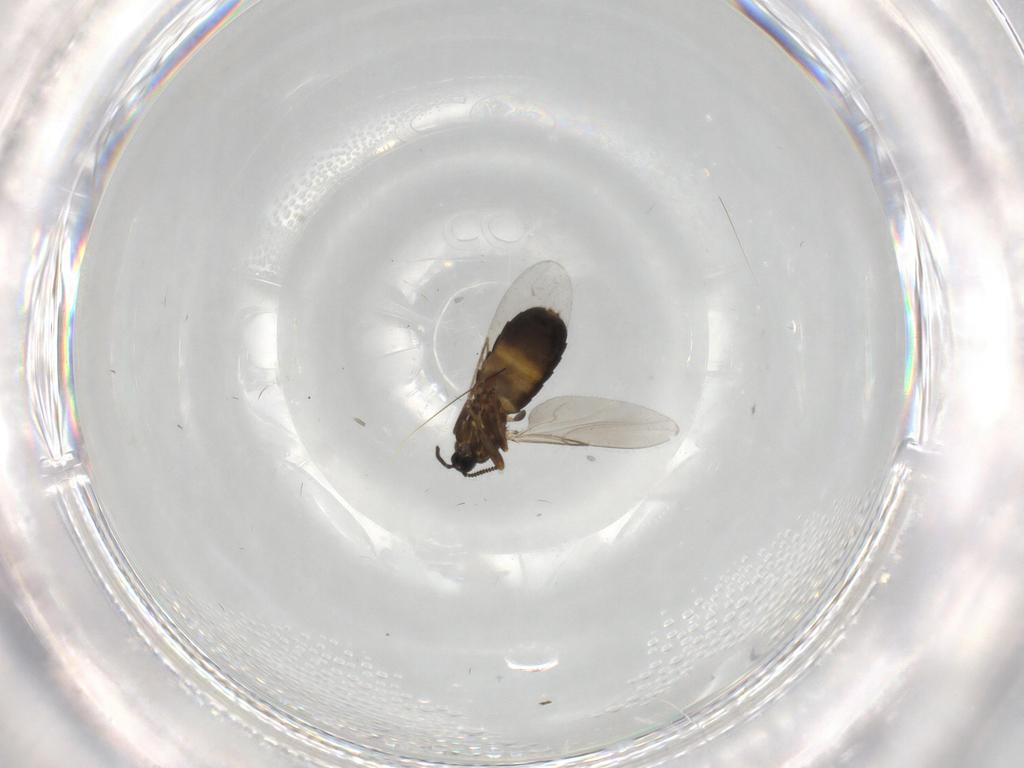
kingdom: Animalia
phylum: Arthropoda
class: Insecta
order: Diptera
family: Scatopsidae
